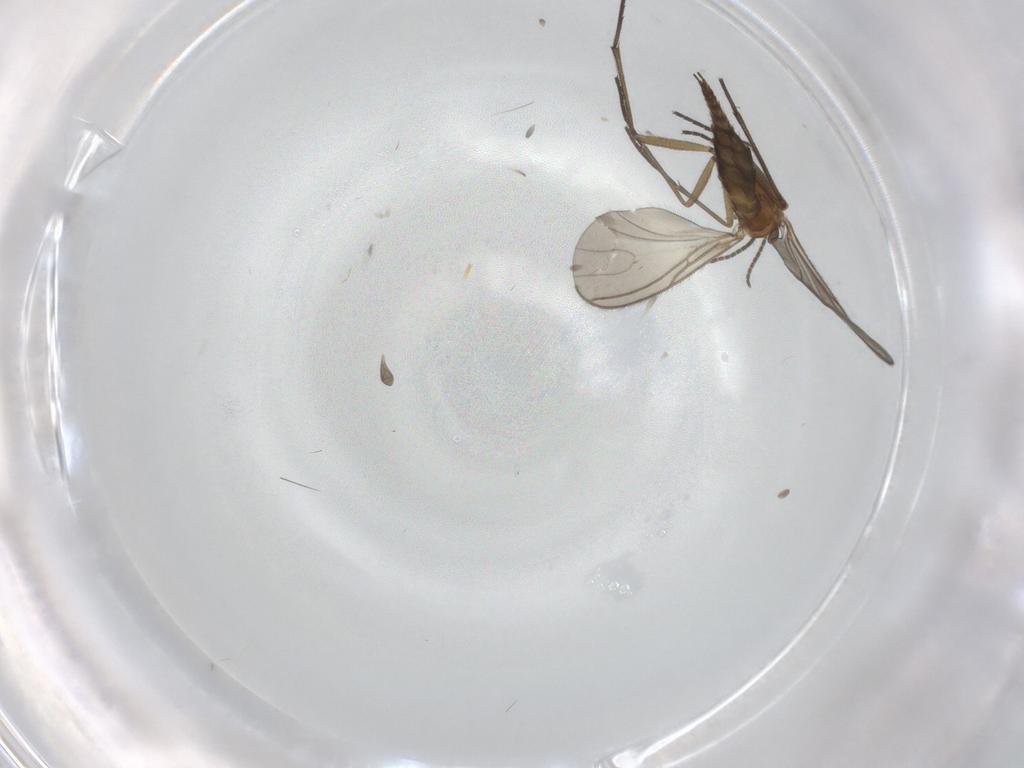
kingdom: Animalia
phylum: Arthropoda
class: Insecta
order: Diptera
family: Sciaridae
